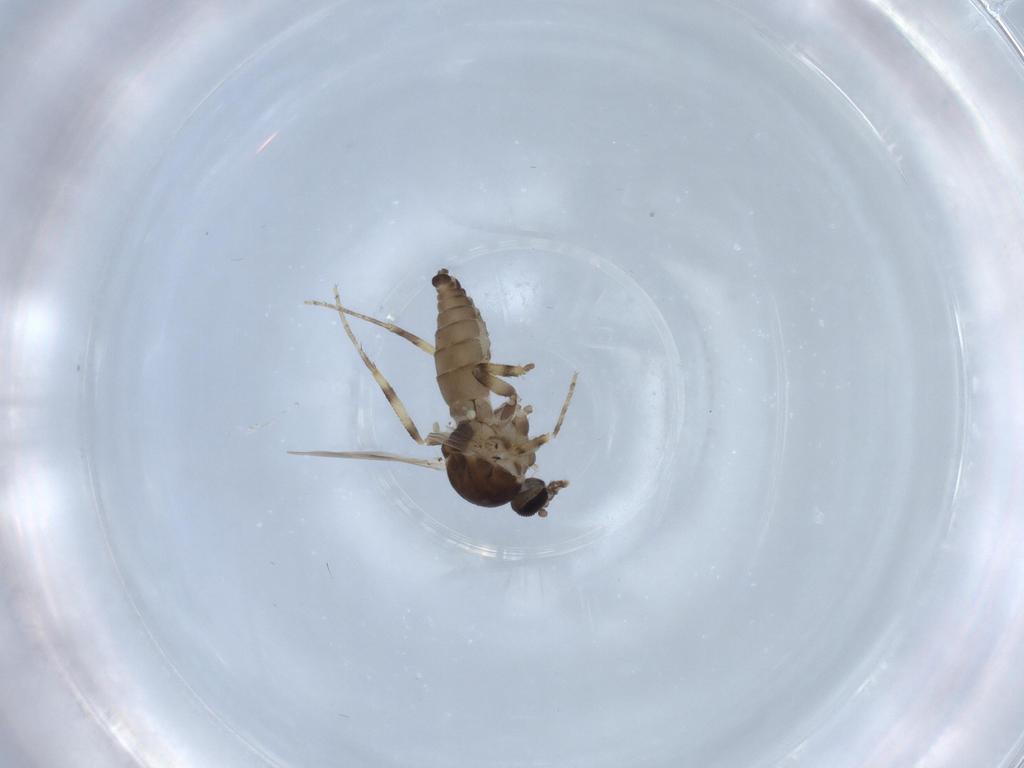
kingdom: Animalia
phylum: Arthropoda
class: Insecta
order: Diptera
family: Ceratopogonidae
